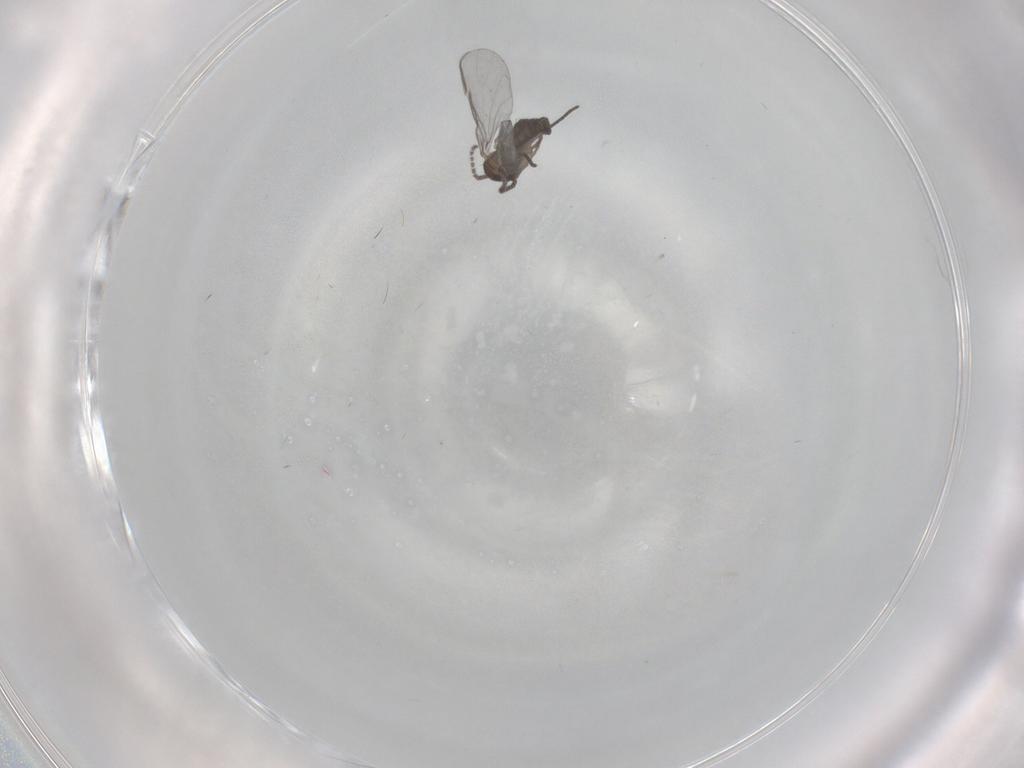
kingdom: Animalia
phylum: Arthropoda
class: Insecta
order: Diptera
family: Cecidomyiidae
